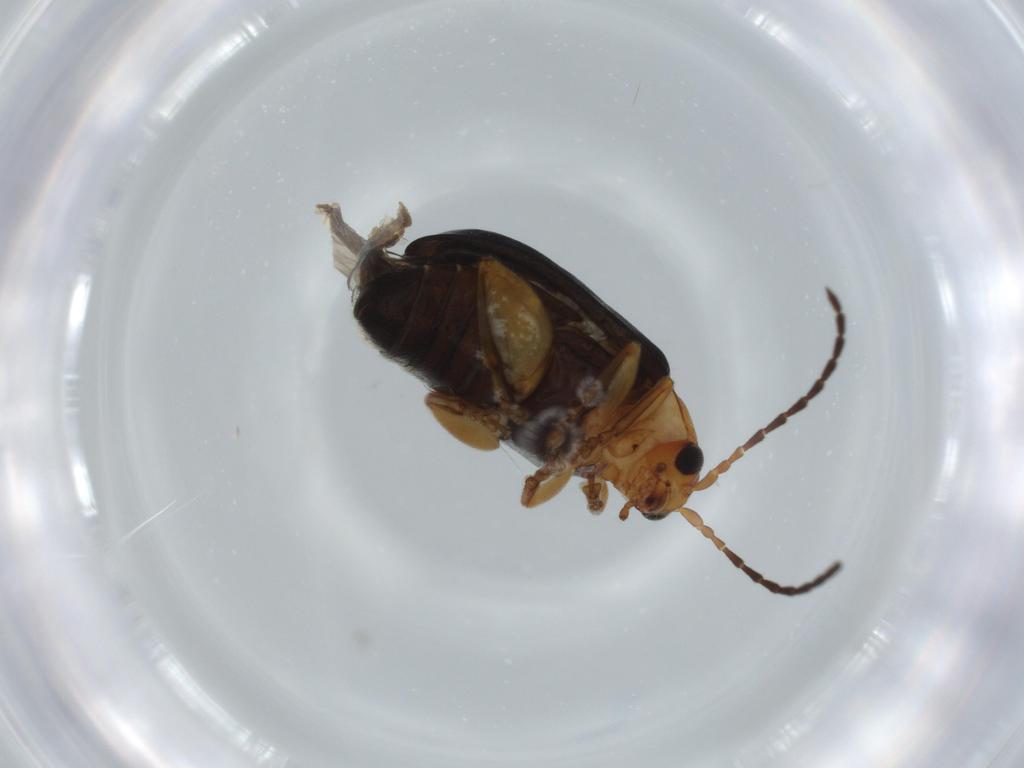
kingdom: Animalia
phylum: Arthropoda
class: Insecta
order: Coleoptera
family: Chrysomelidae
